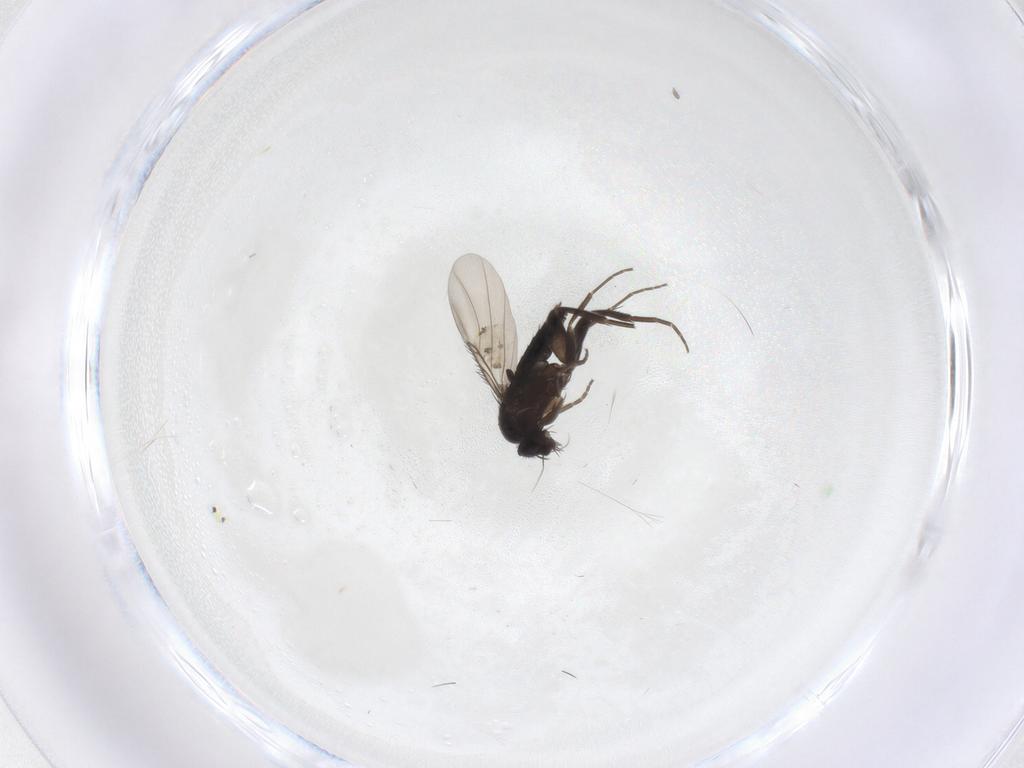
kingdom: Animalia
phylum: Arthropoda
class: Insecta
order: Diptera
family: Phoridae
